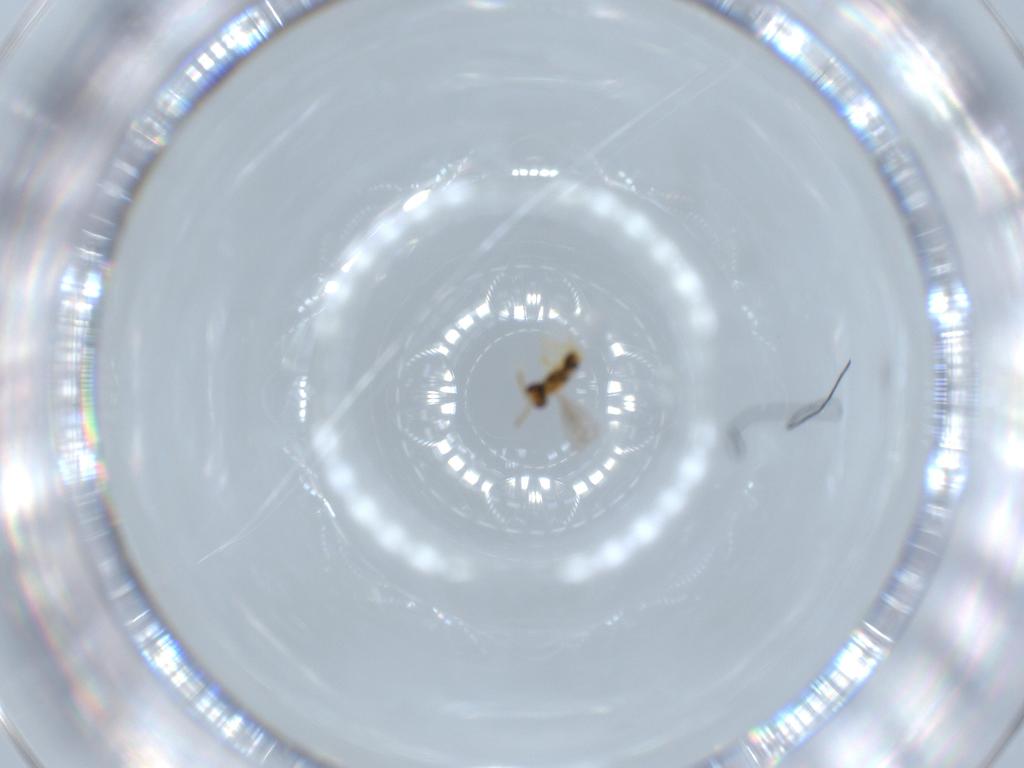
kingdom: Animalia
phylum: Arthropoda
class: Insecta
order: Hymenoptera
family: Aphelinidae
